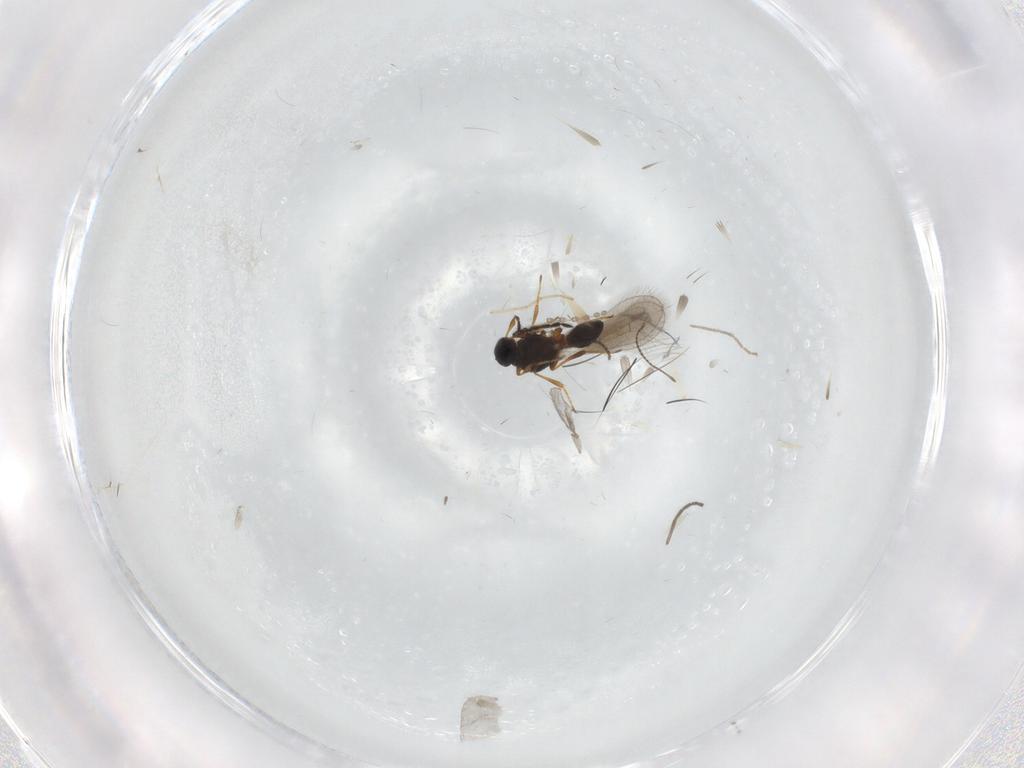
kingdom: Animalia
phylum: Arthropoda
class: Insecta
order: Hymenoptera
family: Platygastridae
